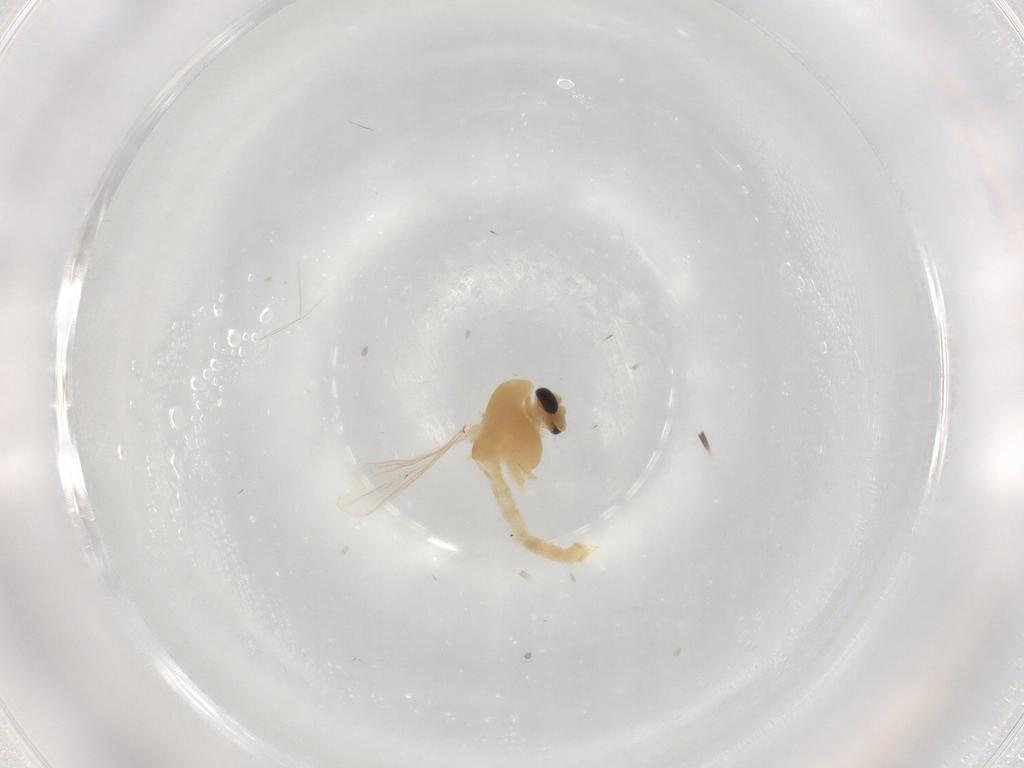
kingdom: Animalia
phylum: Arthropoda
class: Insecta
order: Diptera
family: Chironomidae
